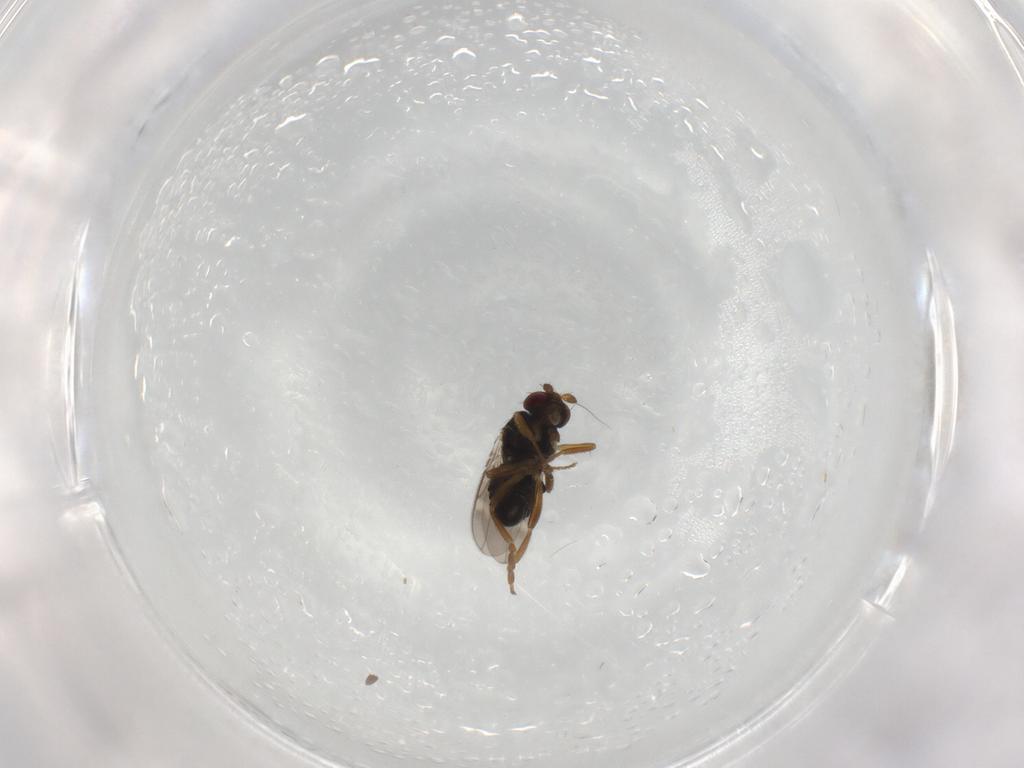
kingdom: Animalia
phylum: Arthropoda
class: Insecta
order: Diptera
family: Sphaeroceridae
